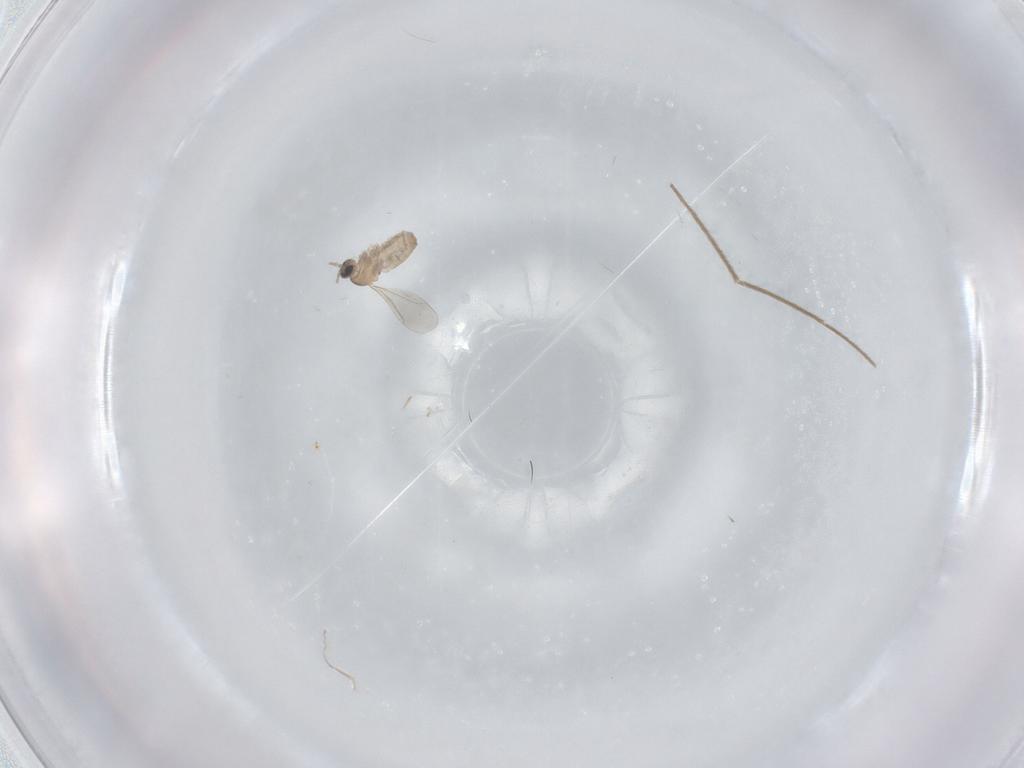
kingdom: Animalia
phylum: Arthropoda
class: Insecta
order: Diptera
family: Cecidomyiidae
